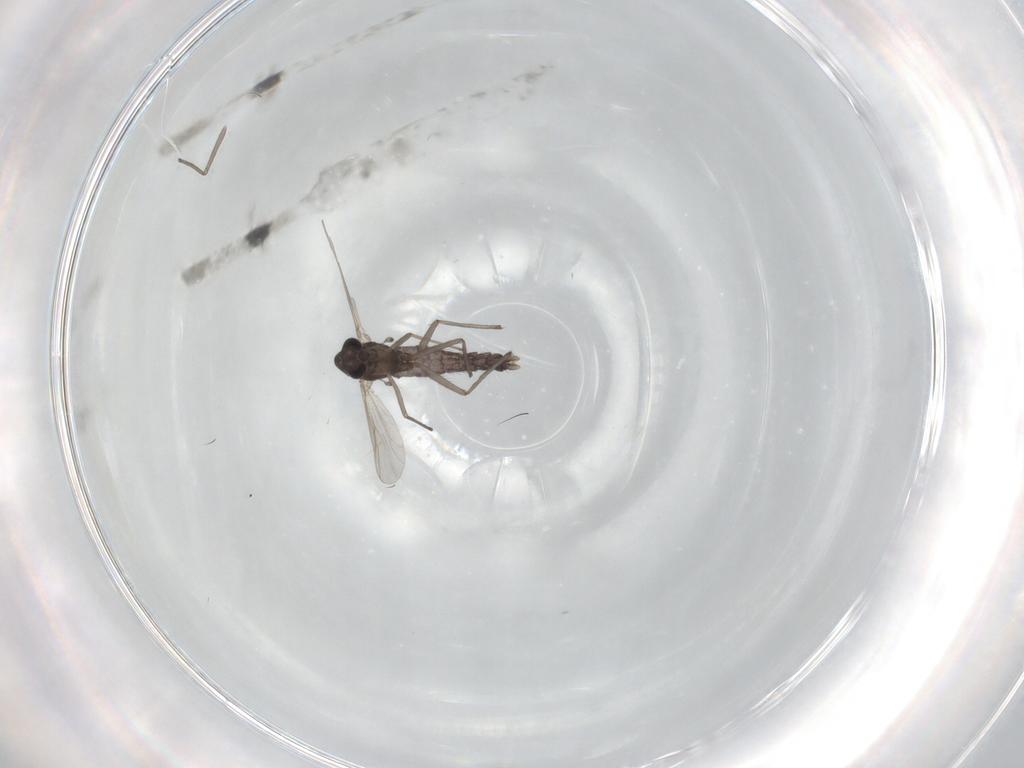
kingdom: Animalia
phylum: Arthropoda
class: Insecta
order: Diptera
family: Chironomidae
